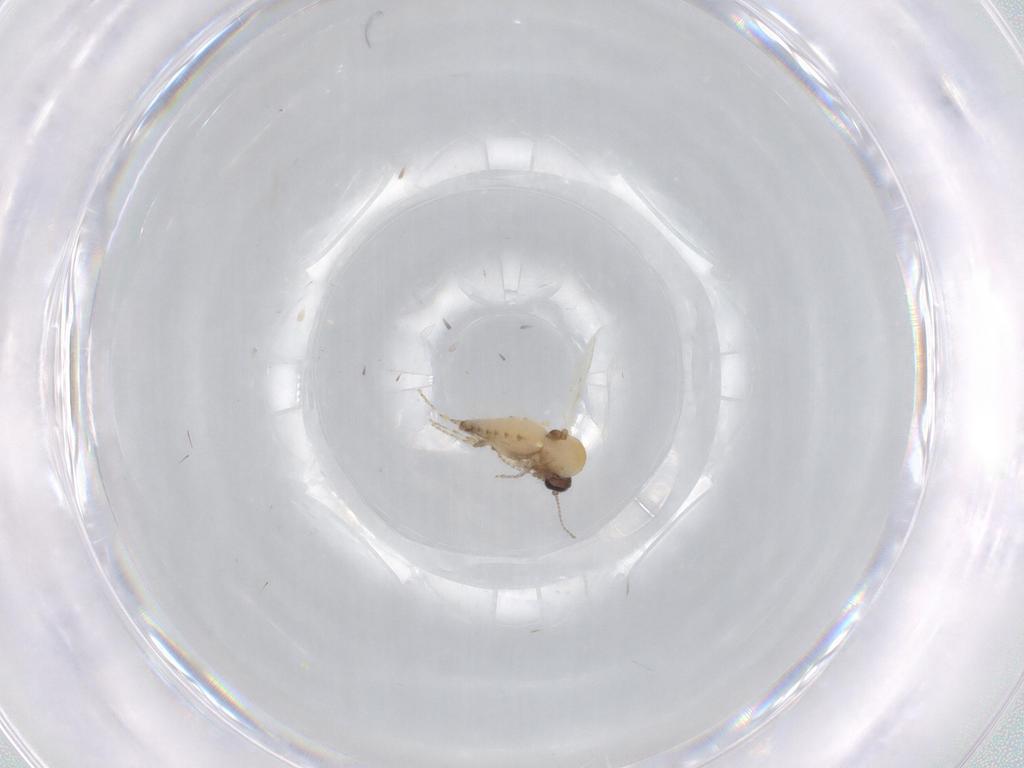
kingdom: Animalia
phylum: Arthropoda
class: Insecta
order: Diptera
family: Ceratopogonidae
